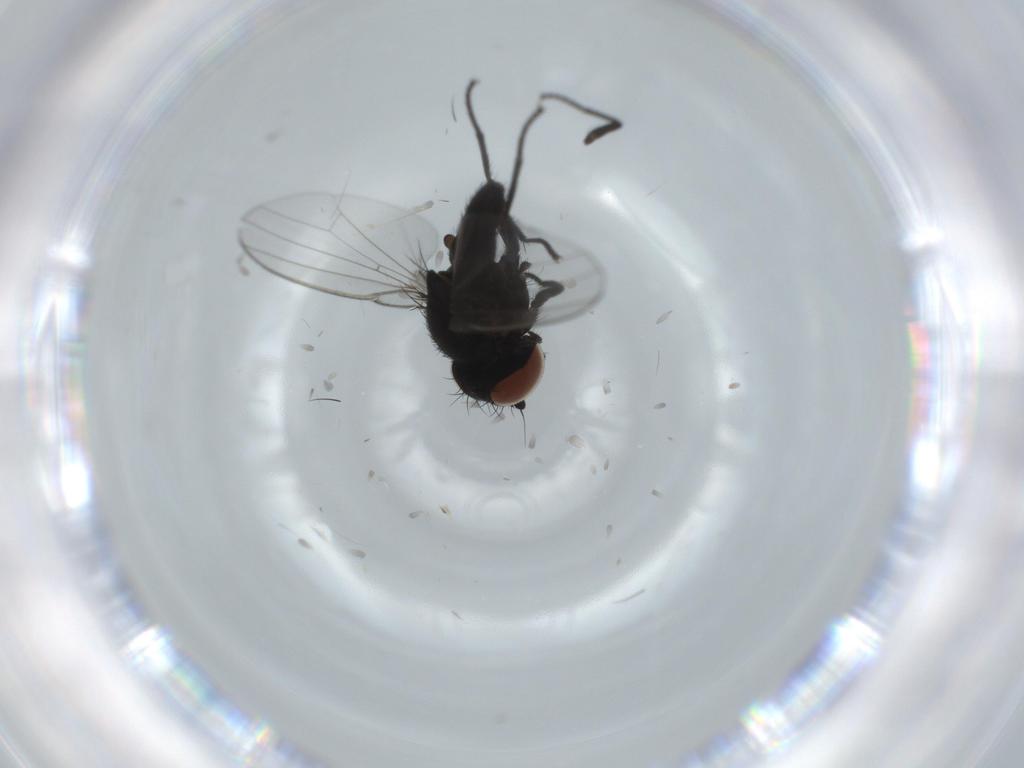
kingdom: Animalia
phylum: Arthropoda
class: Insecta
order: Diptera
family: Milichiidae
